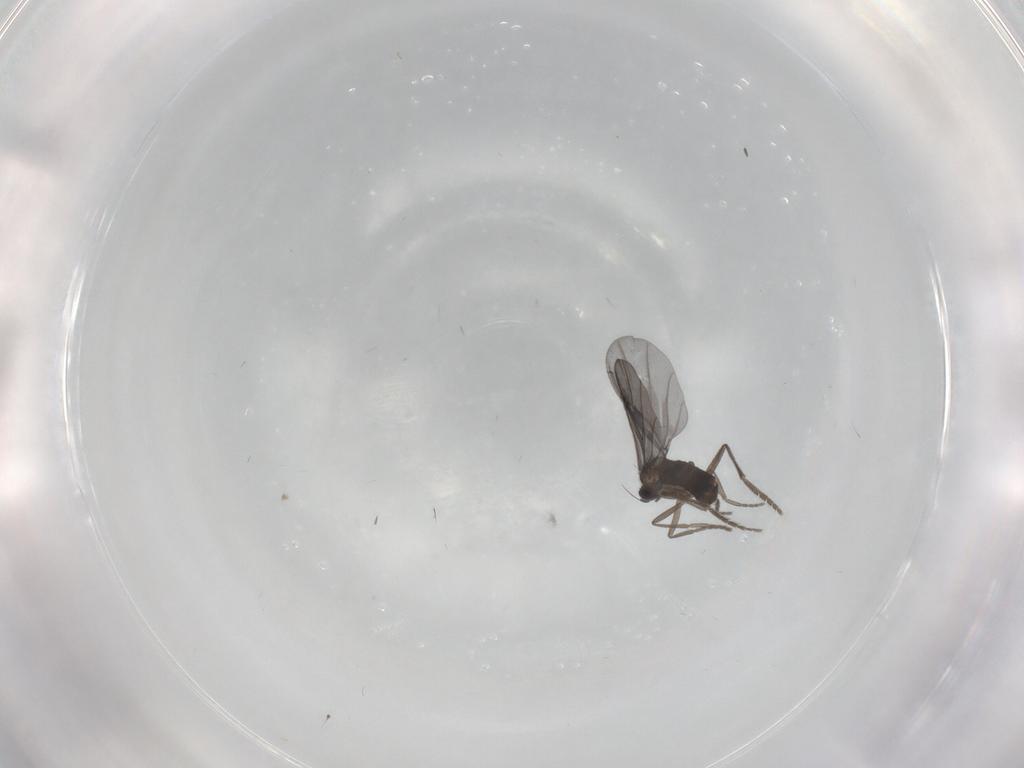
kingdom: Animalia
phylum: Arthropoda
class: Insecta
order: Diptera
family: Phoridae
